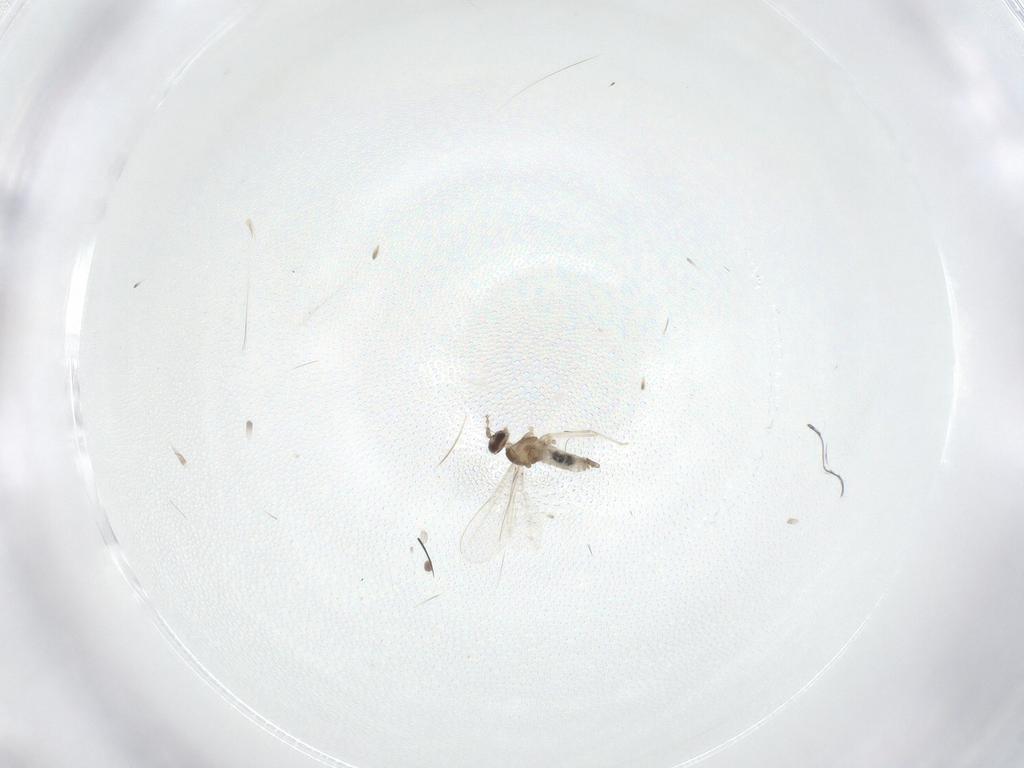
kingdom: Animalia
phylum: Arthropoda
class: Insecta
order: Diptera
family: Cecidomyiidae
